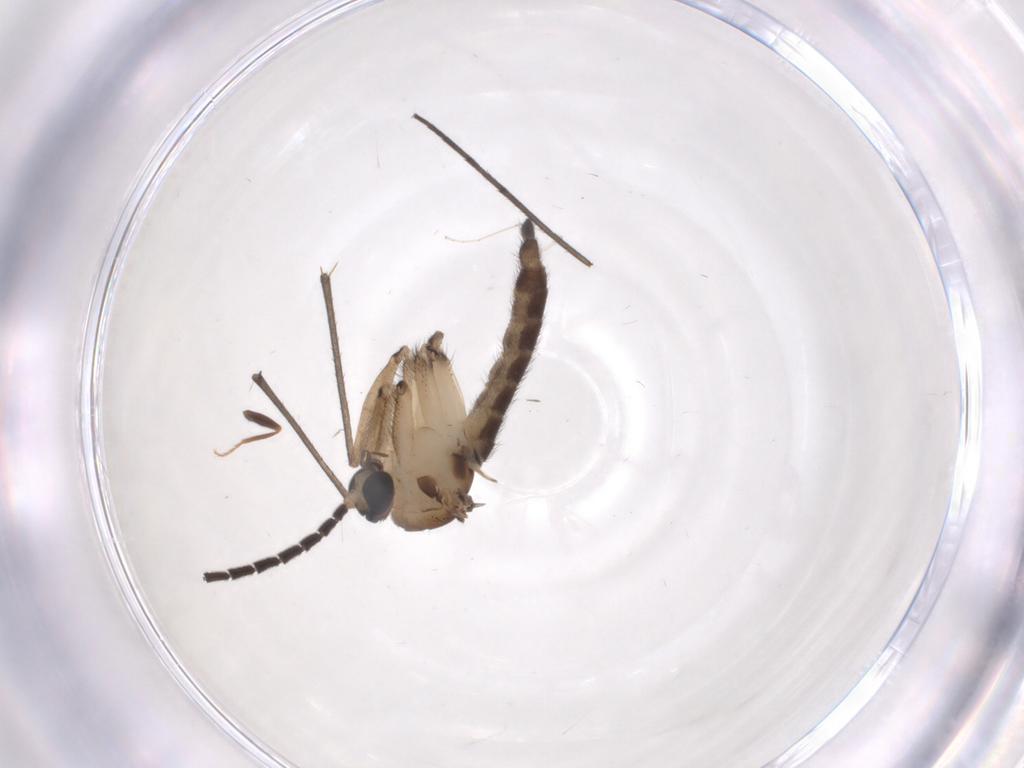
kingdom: Animalia
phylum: Arthropoda
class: Insecta
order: Diptera
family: Sciaridae
